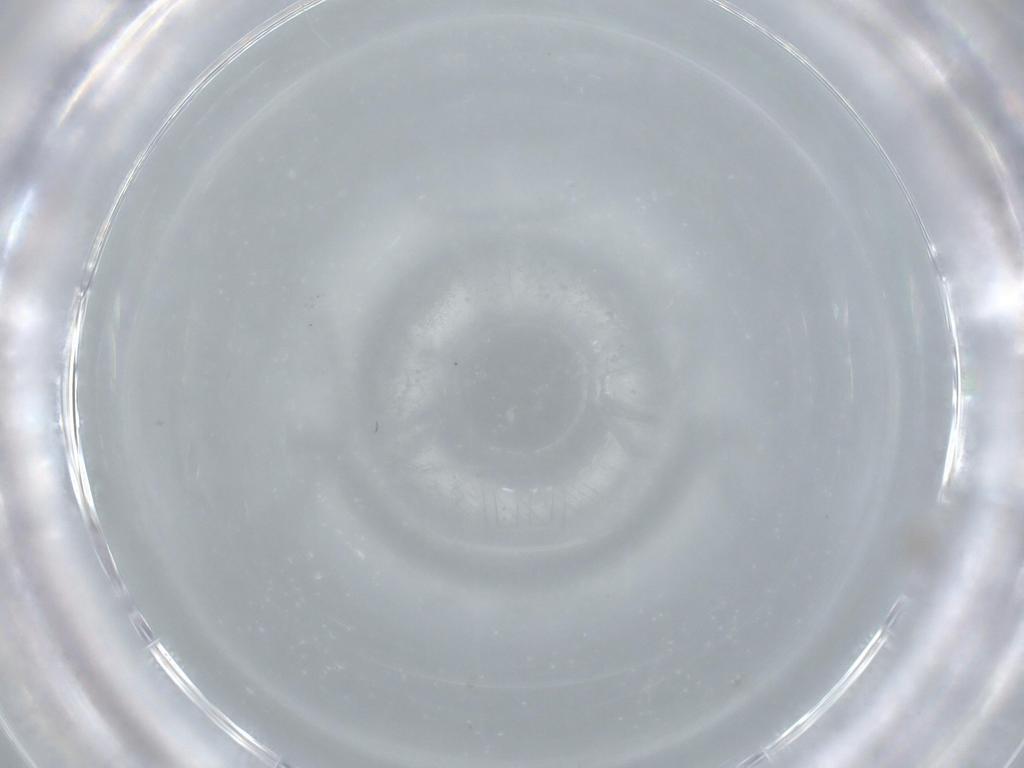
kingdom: Animalia
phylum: Arthropoda
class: Insecta
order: Diptera
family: Cecidomyiidae
